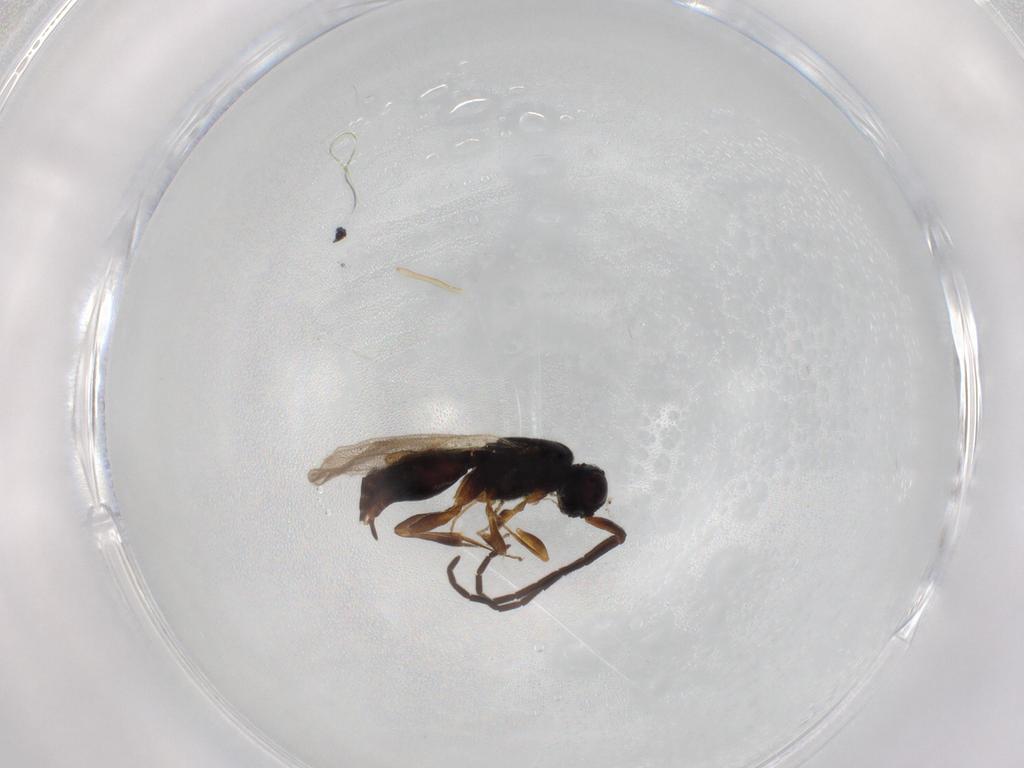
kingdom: Animalia
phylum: Arthropoda
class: Insecta
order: Hymenoptera
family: Megaspilidae
